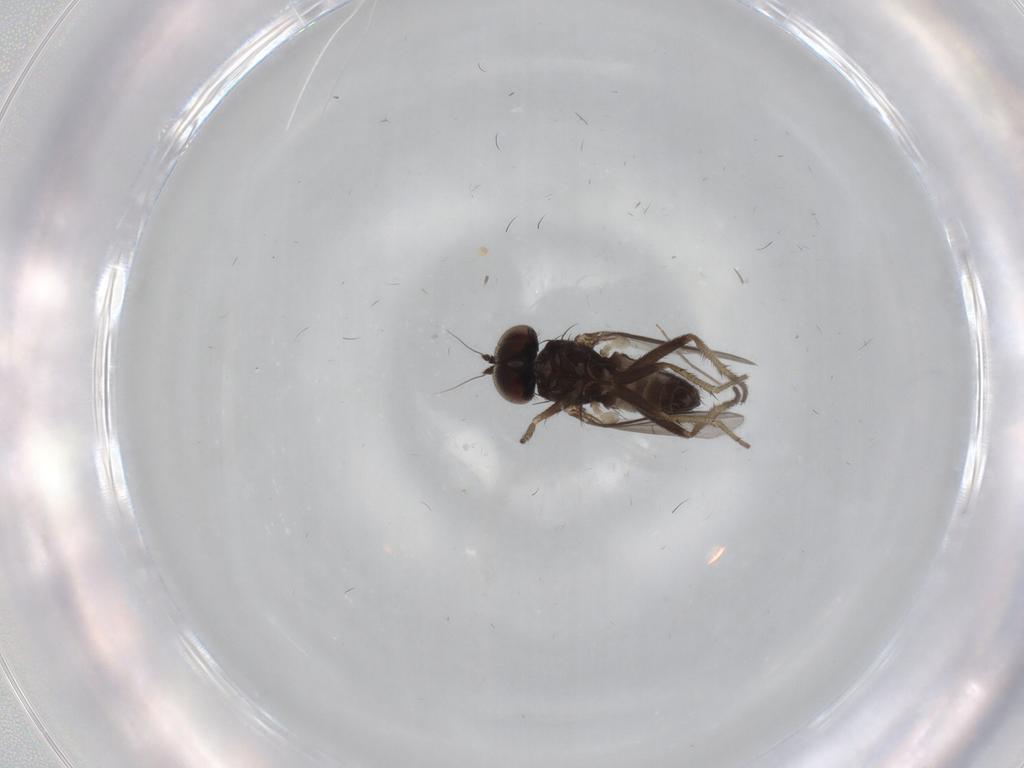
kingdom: Animalia
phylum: Arthropoda
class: Insecta
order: Diptera
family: Dolichopodidae
